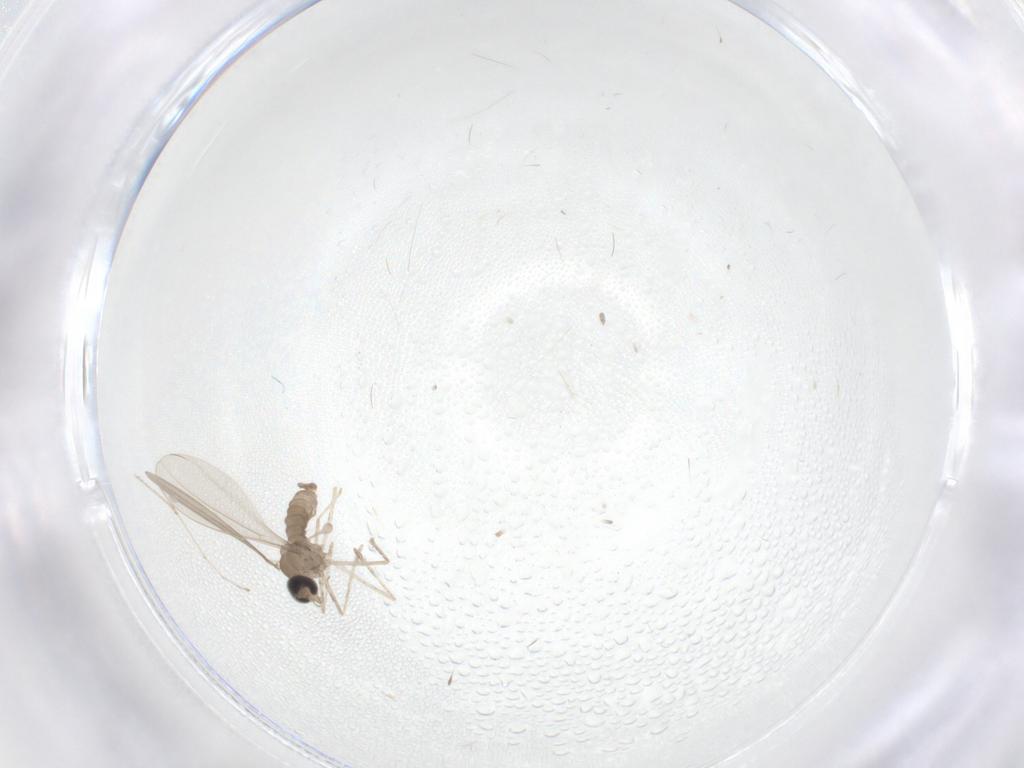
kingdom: Animalia
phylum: Arthropoda
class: Insecta
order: Diptera
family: Cecidomyiidae
